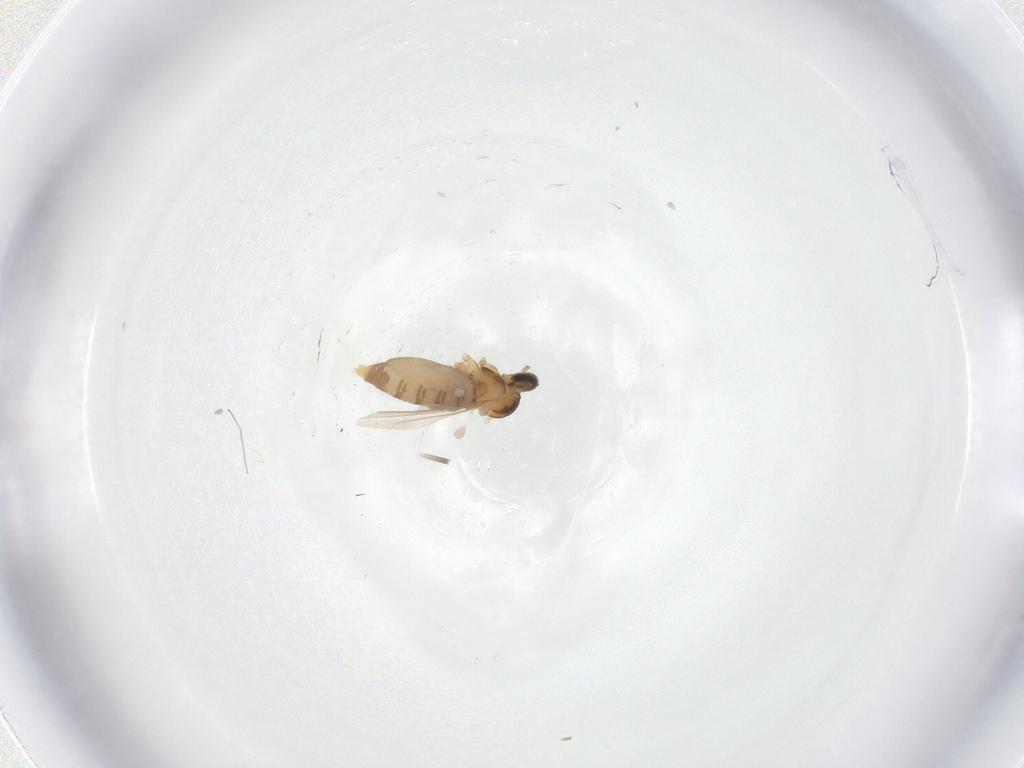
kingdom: Animalia
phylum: Arthropoda
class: Insecta
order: Diptera
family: Cecidomyiidae
